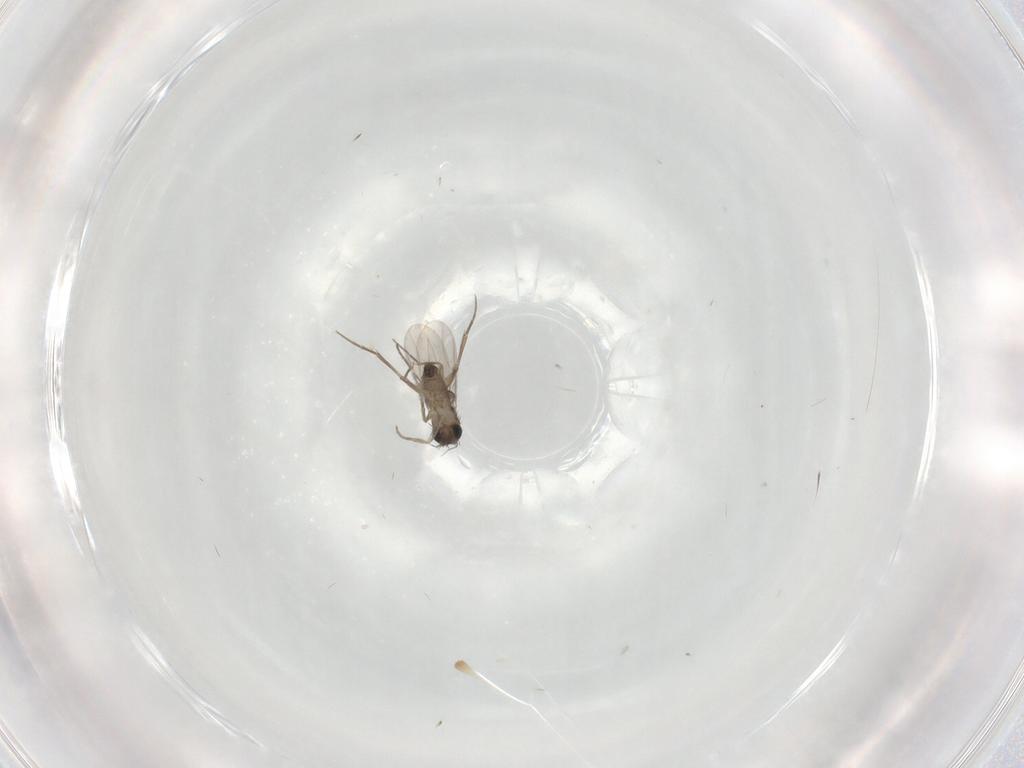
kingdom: Animalia
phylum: Arthropoda
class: Insecta
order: Diptera
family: Phoridae
